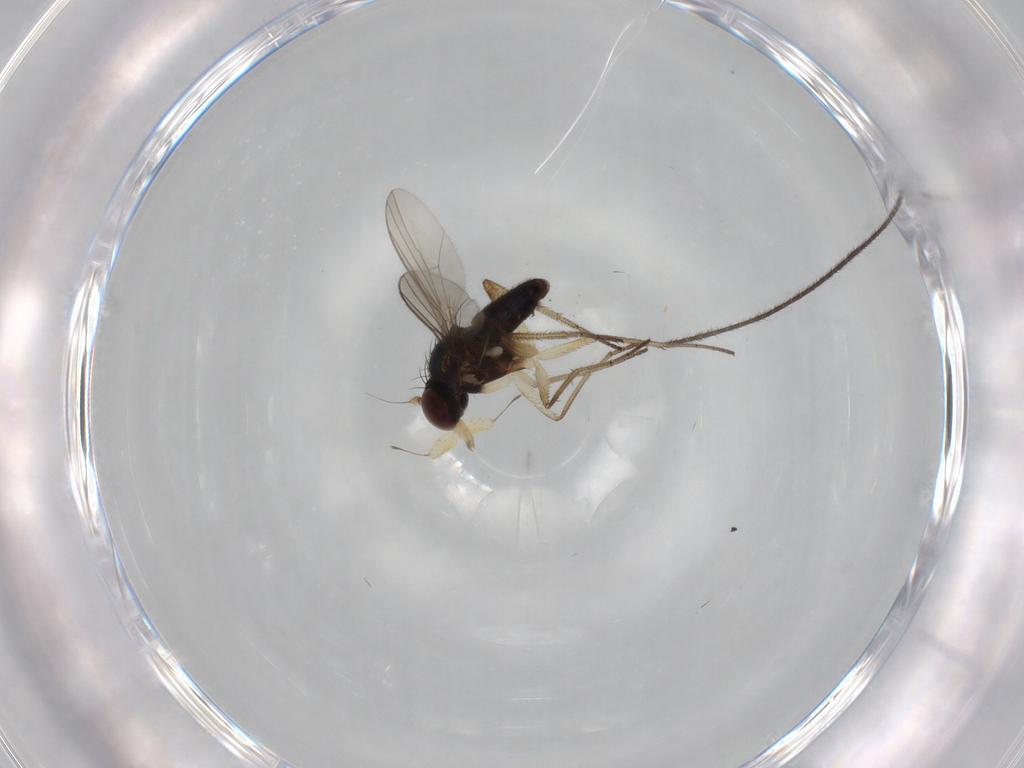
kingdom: Animalia
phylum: Arthropoda
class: Insecta
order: Diptera
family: Dolichopodidae
